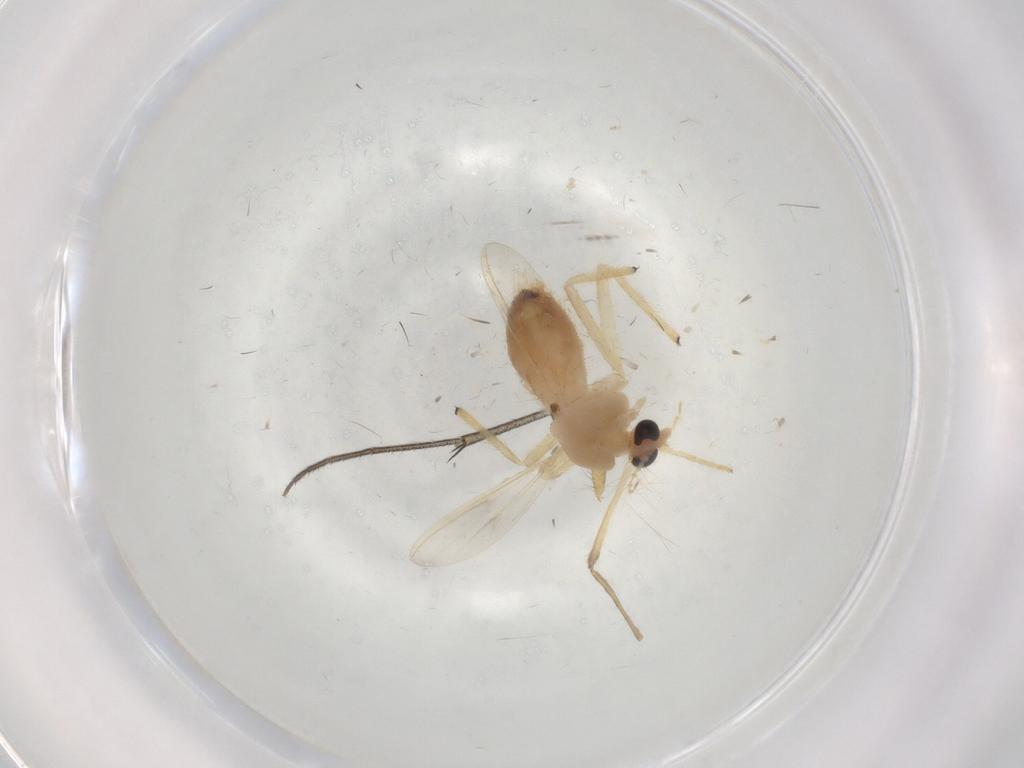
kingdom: Animalia
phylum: Arthropoda
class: Insecta
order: Diptera
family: Chironomidae
